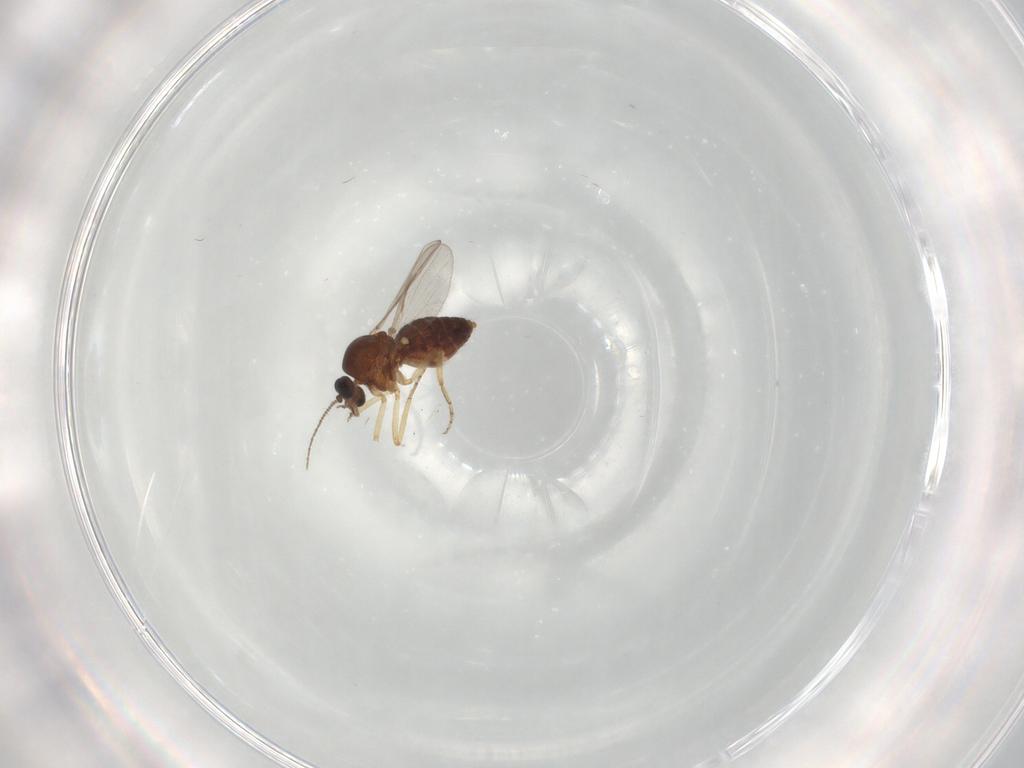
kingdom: Animalia
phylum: Arthropoda
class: Insecta
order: Diptera
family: Ceratopogonidae
